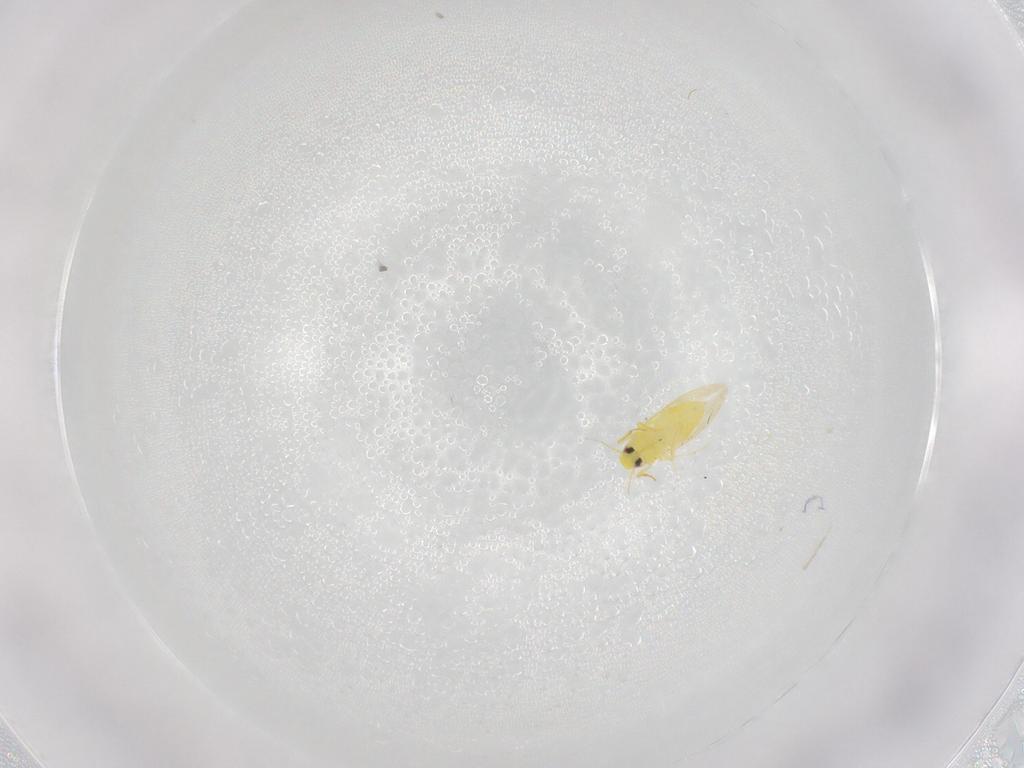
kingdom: Animalia
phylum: Arthropoda
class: Insecta
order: Hemiptera
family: Aleyrodidae
